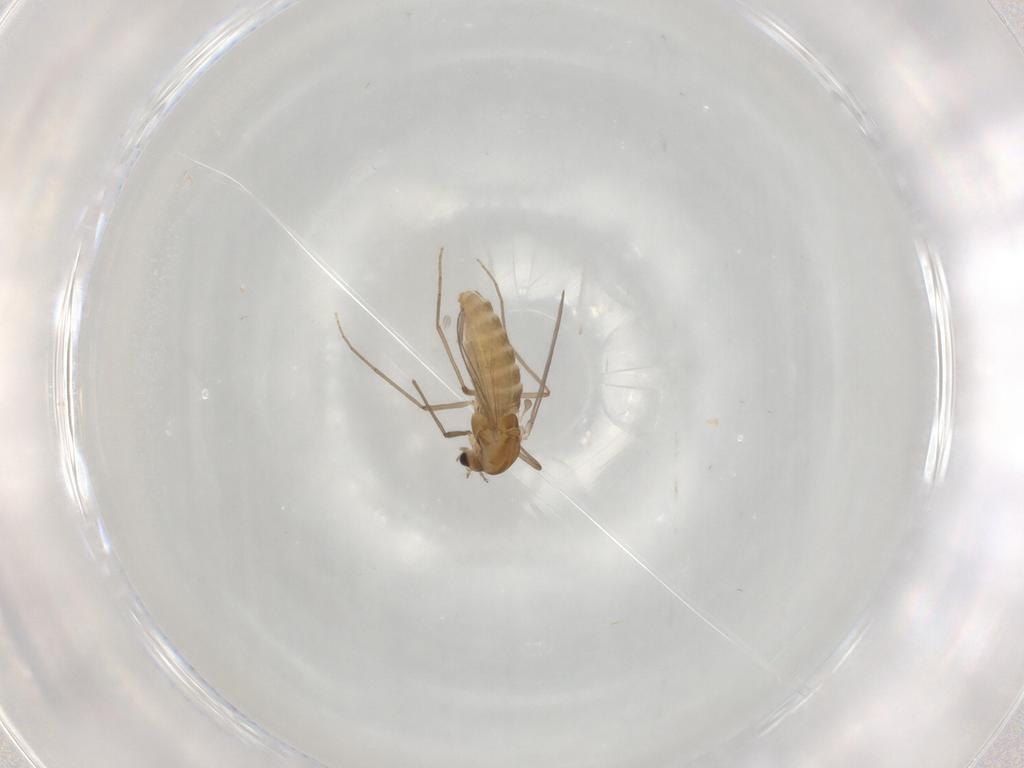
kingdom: Animalia
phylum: Arthropoda
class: Insecta
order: Diptera
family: Chironomidae
